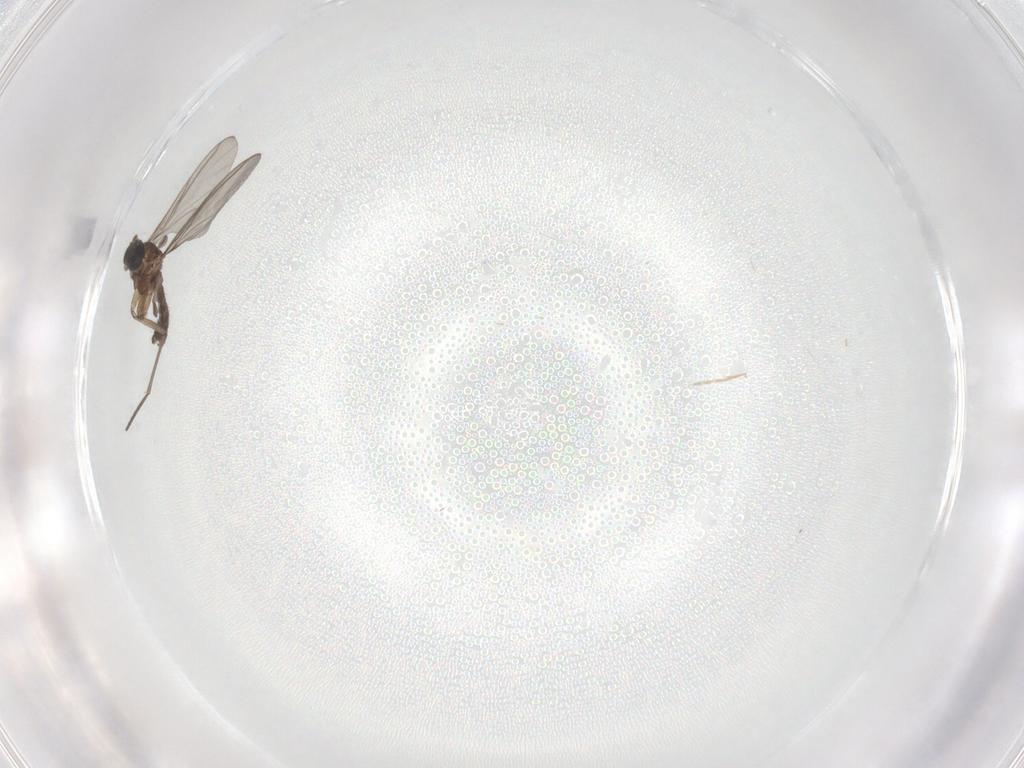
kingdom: Animalia
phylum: Arthropoda
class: Insecta
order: Diptera
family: Sciaridae
